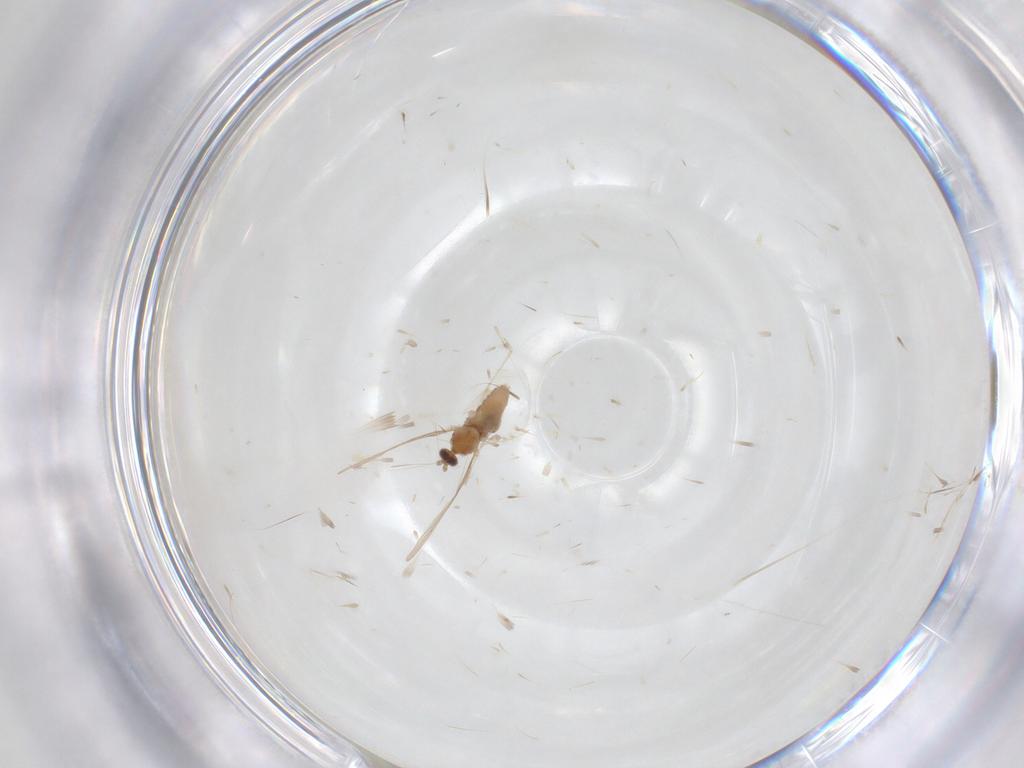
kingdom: Animalia
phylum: Arthropoda
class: Insecta
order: Diptera
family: Cecidomyiidae
